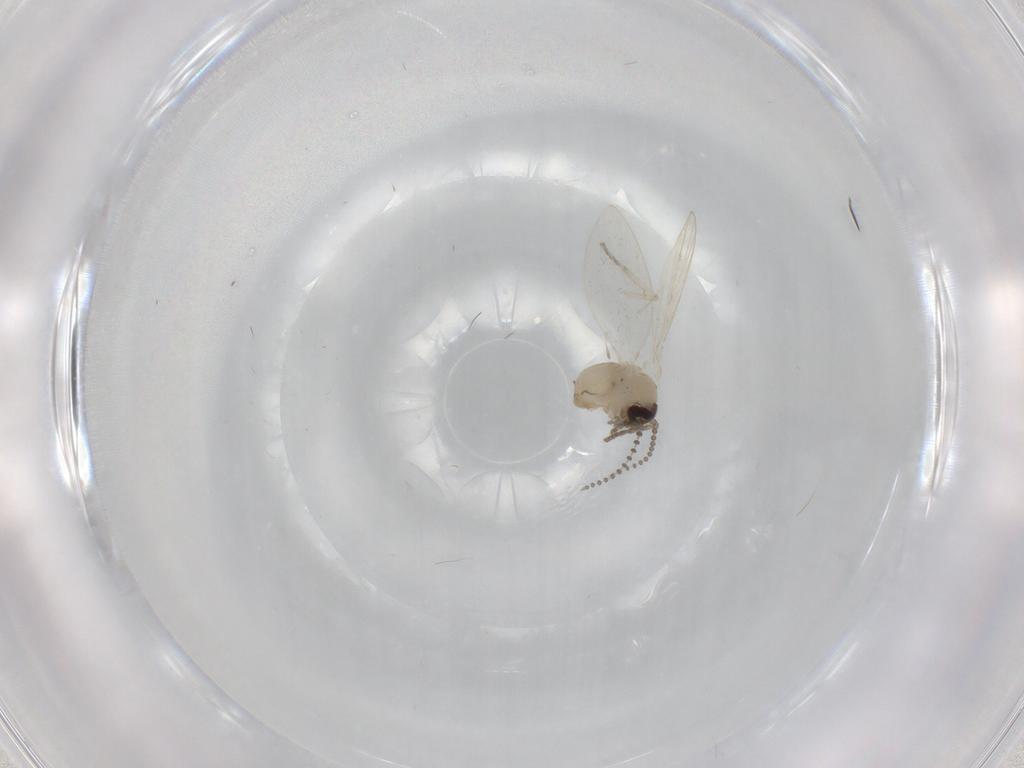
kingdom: Animalia
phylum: Arthropoda
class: Insecta
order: Diptera
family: Psychodidae
